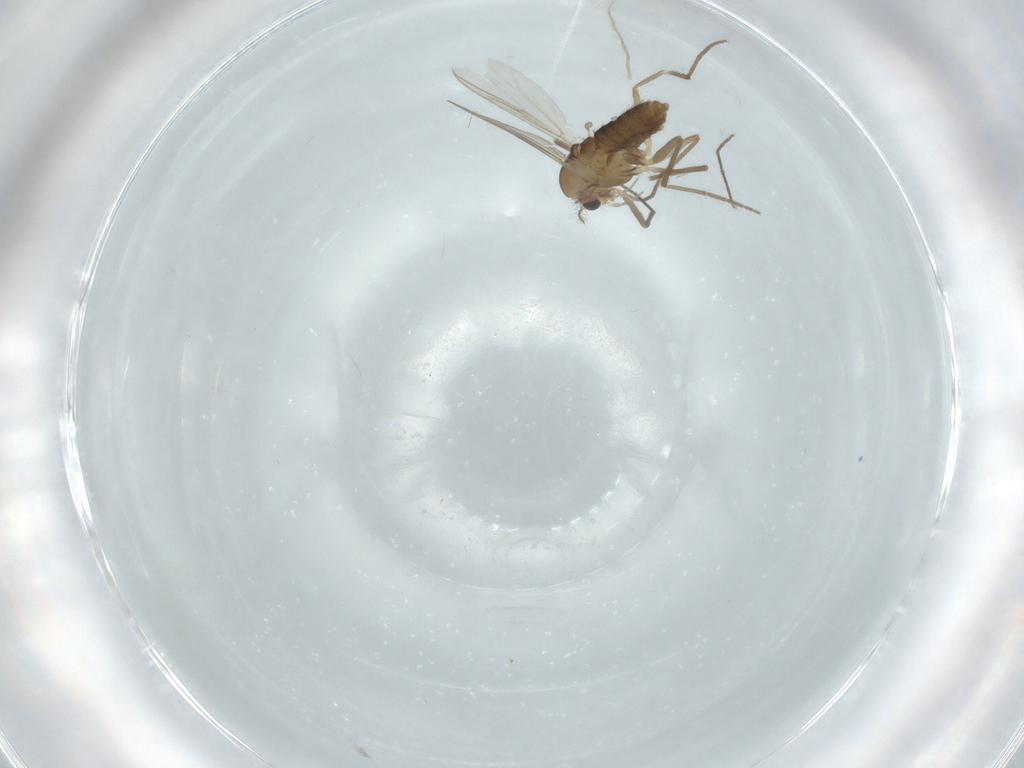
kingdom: Animalia
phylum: Arthropoda
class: Insecta
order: Diptera
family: Chironomidae
